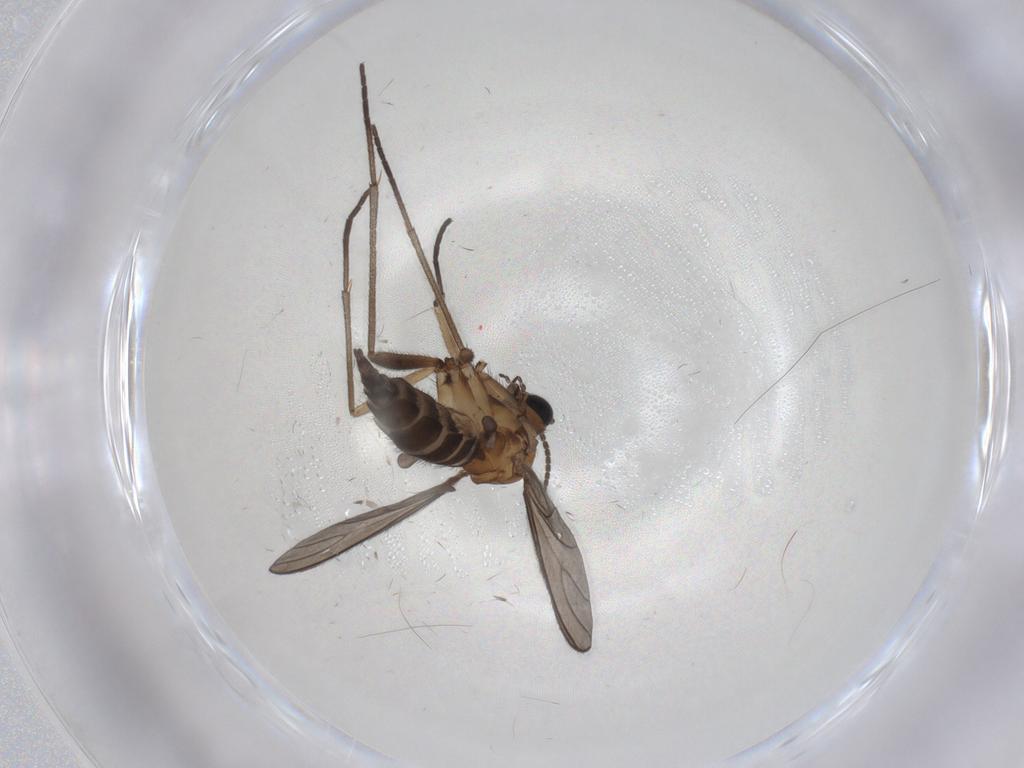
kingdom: Animalia
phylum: Arthropoda
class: Insecta
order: Diptera
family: Sciaridae
